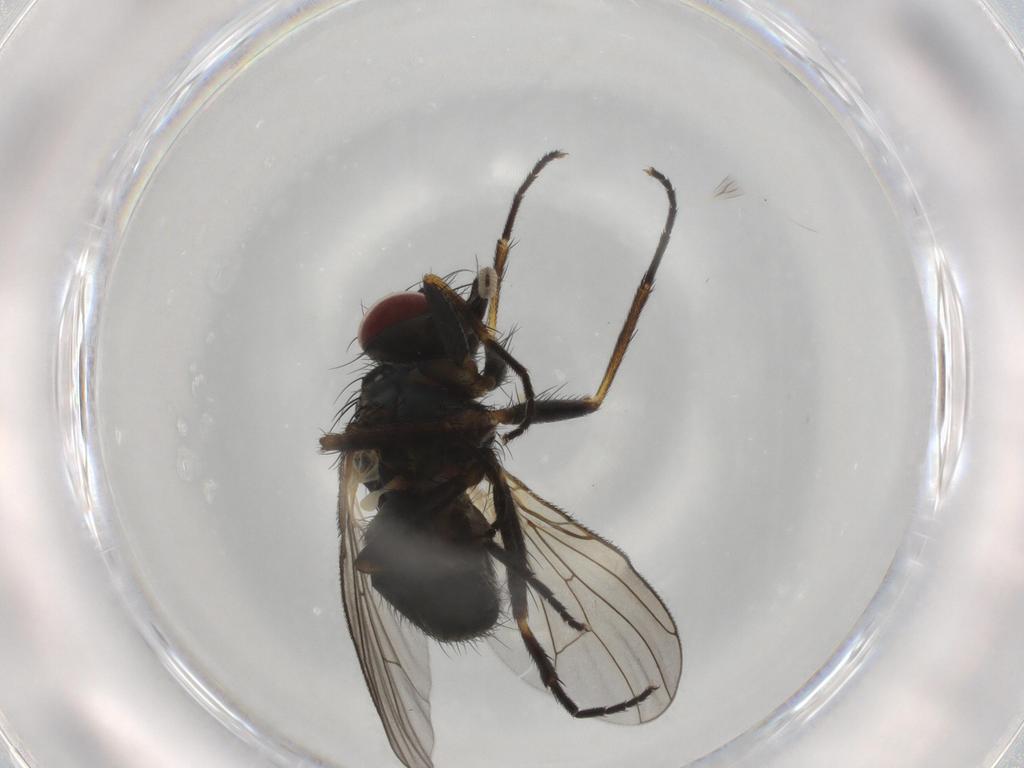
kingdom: Animalia
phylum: Arthropoda
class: Insecta
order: Diptera
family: Muscidae
